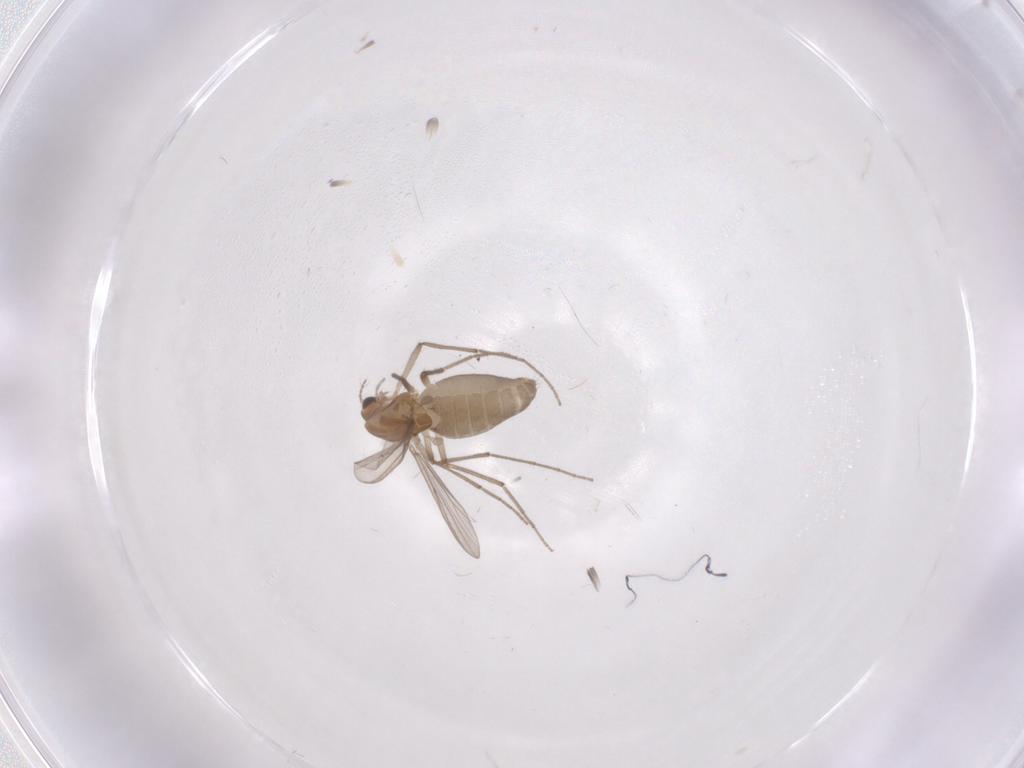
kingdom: Animalia
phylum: Arthropoda
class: Insecta
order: Diptera
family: Chironomidae
